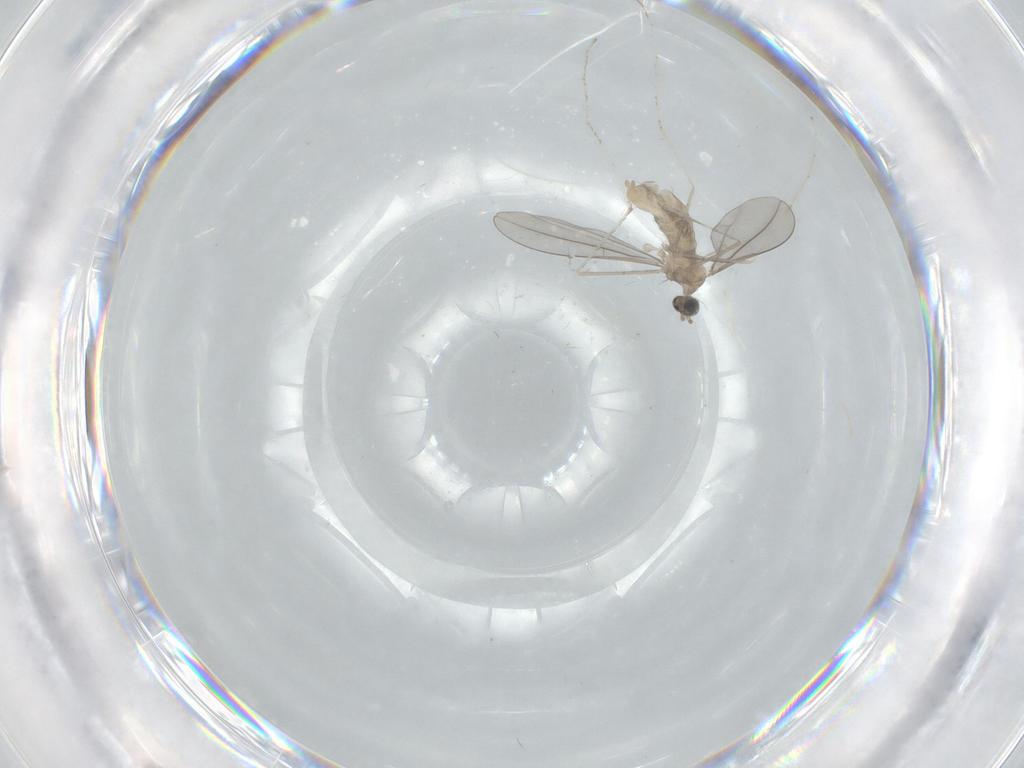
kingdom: Animalia
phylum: Arthropoda
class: Insecta
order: Diptera
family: Cecidomyiidae
